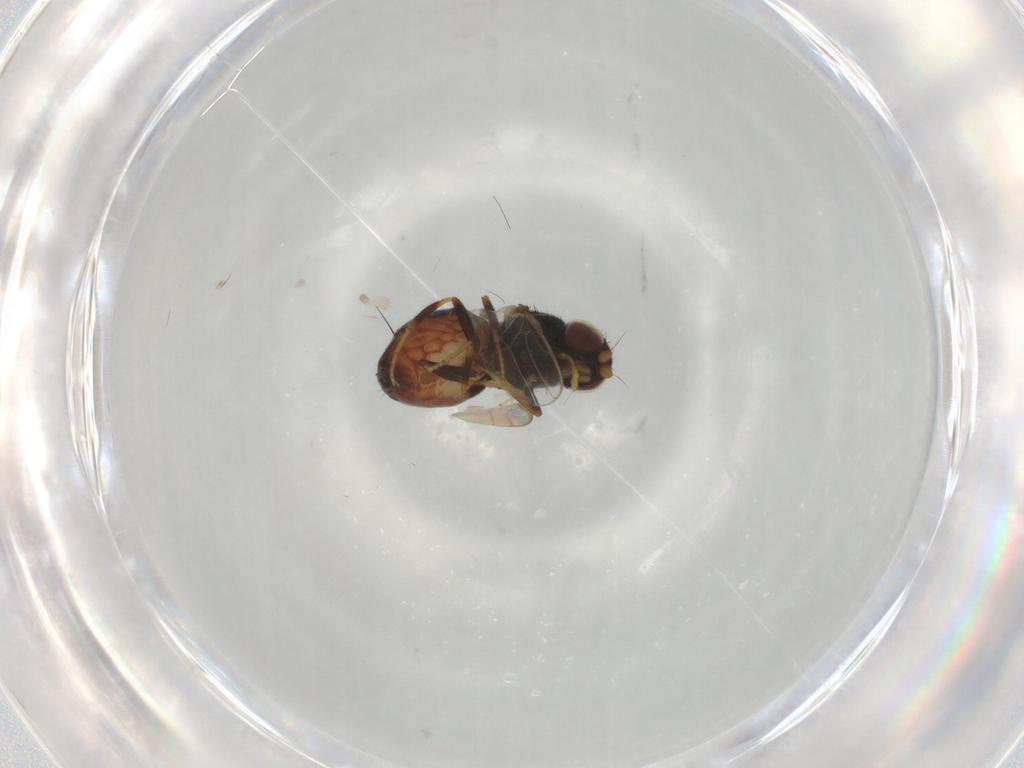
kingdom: Animalia
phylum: Arthropoda
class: Insecta
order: Diptera
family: Chloropidae
